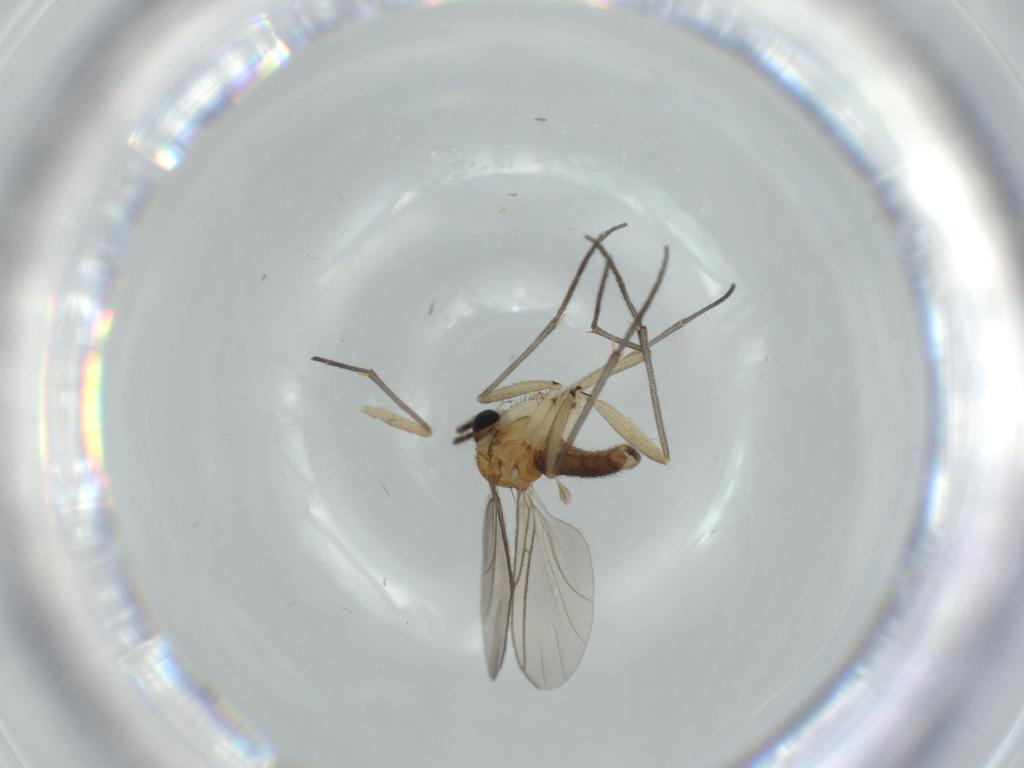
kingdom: Animalia
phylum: Arthropoda
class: Insecta
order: Diptera
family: Sciaridae
